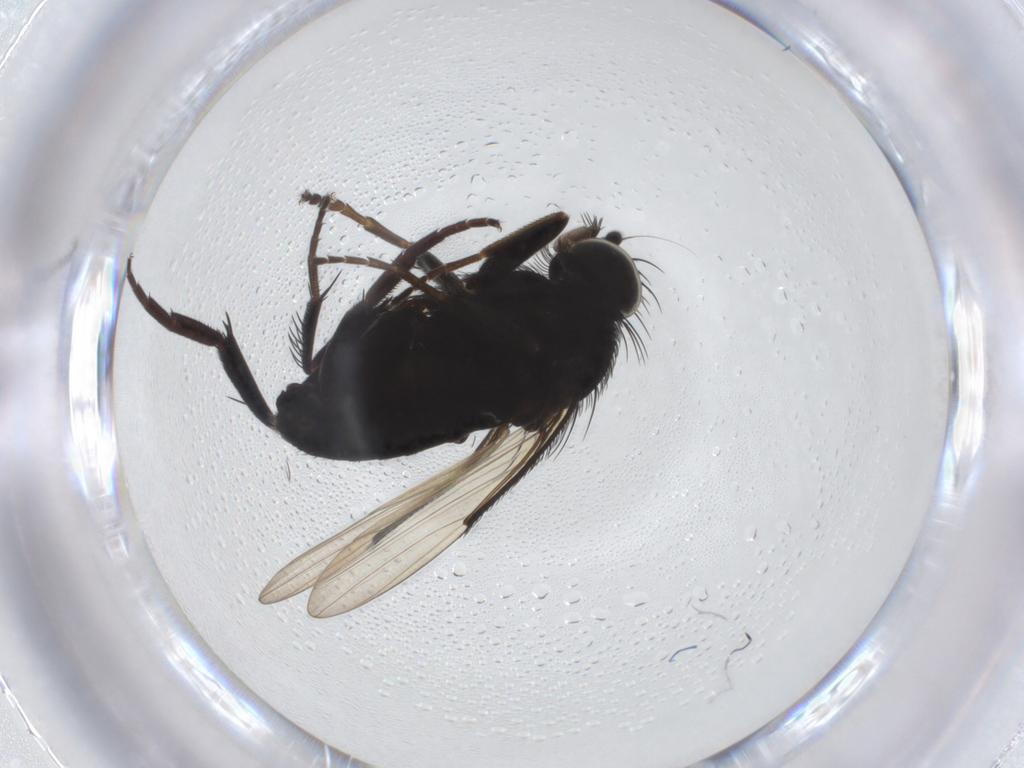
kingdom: Animalia
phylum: Arthropoda
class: Insecta
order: Diptera
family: Phoridae
